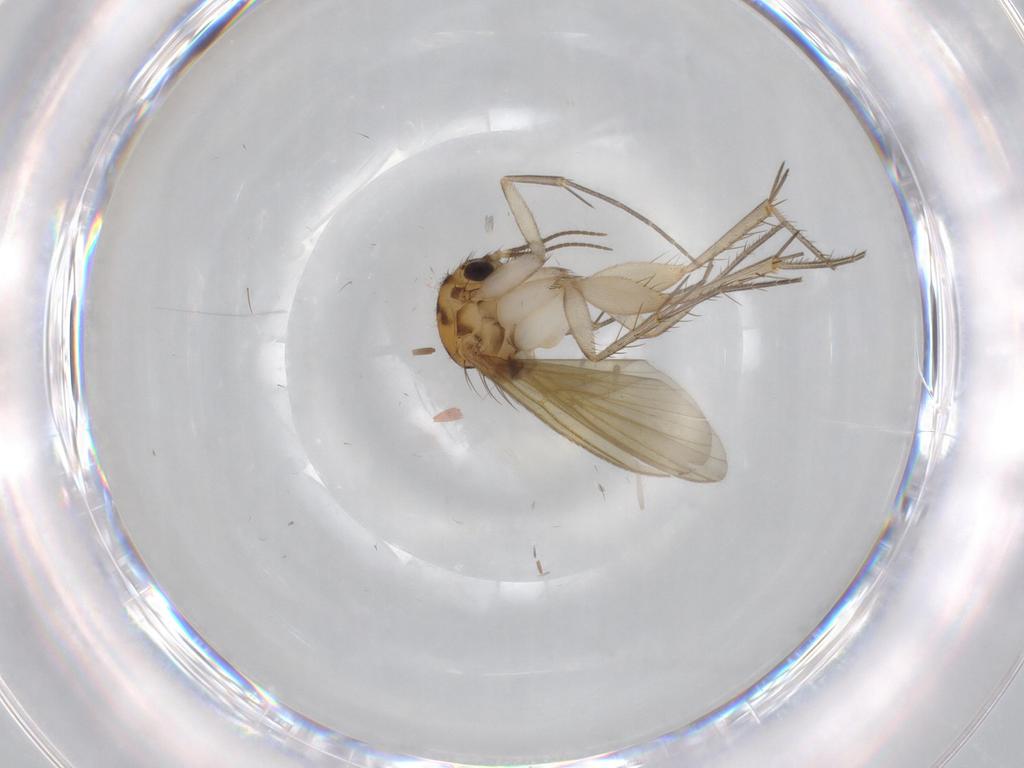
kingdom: Animalia
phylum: Arthropoda
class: Insecta
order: Diptera
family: Mycetophilidae
